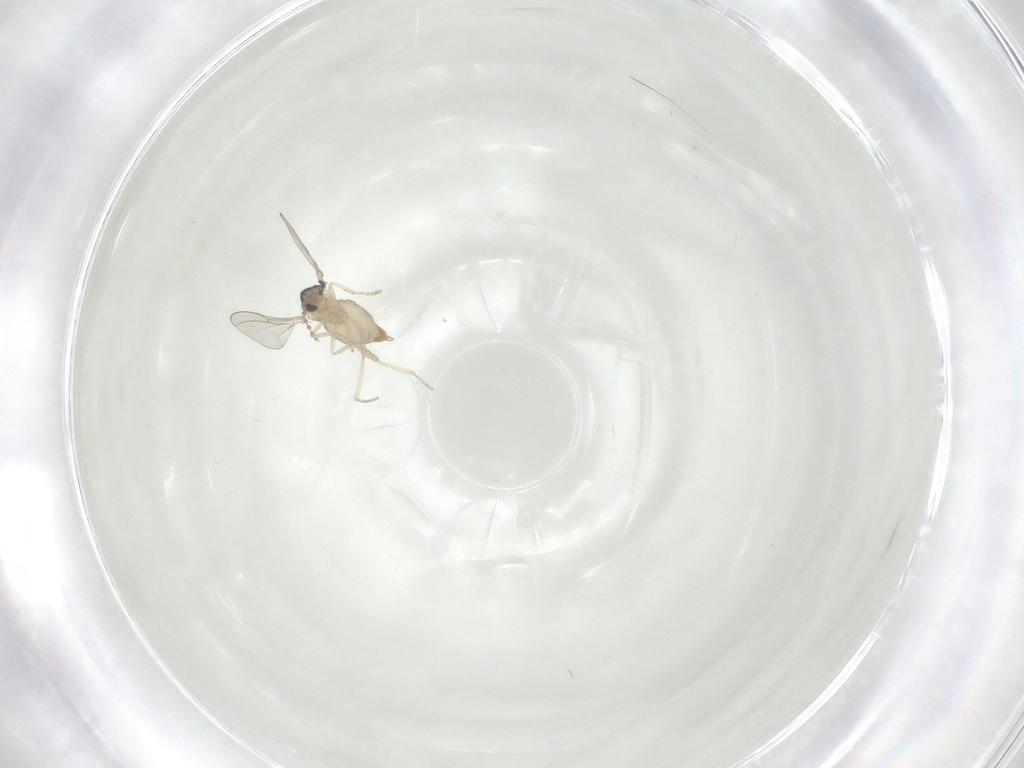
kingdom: Animalia
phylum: Arthropoda
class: Insecta
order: Diptera
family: Cecidomyiidae
